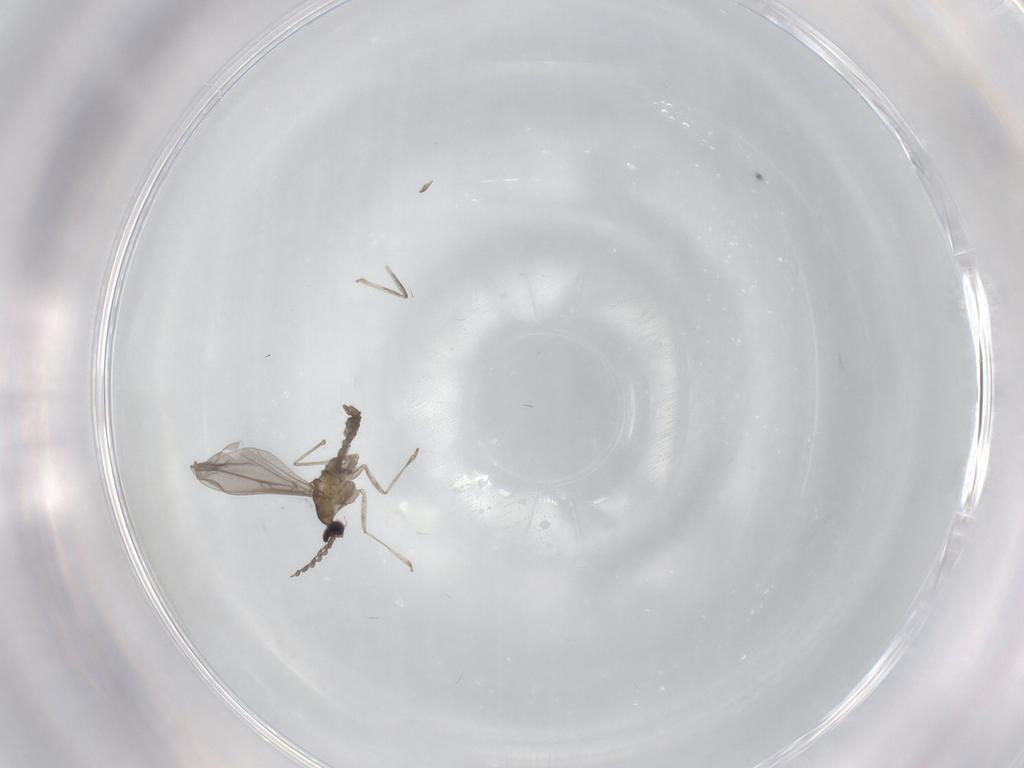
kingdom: Animalia
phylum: Arthropoda
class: Insecta
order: Diptera
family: Cecidomyiidae
